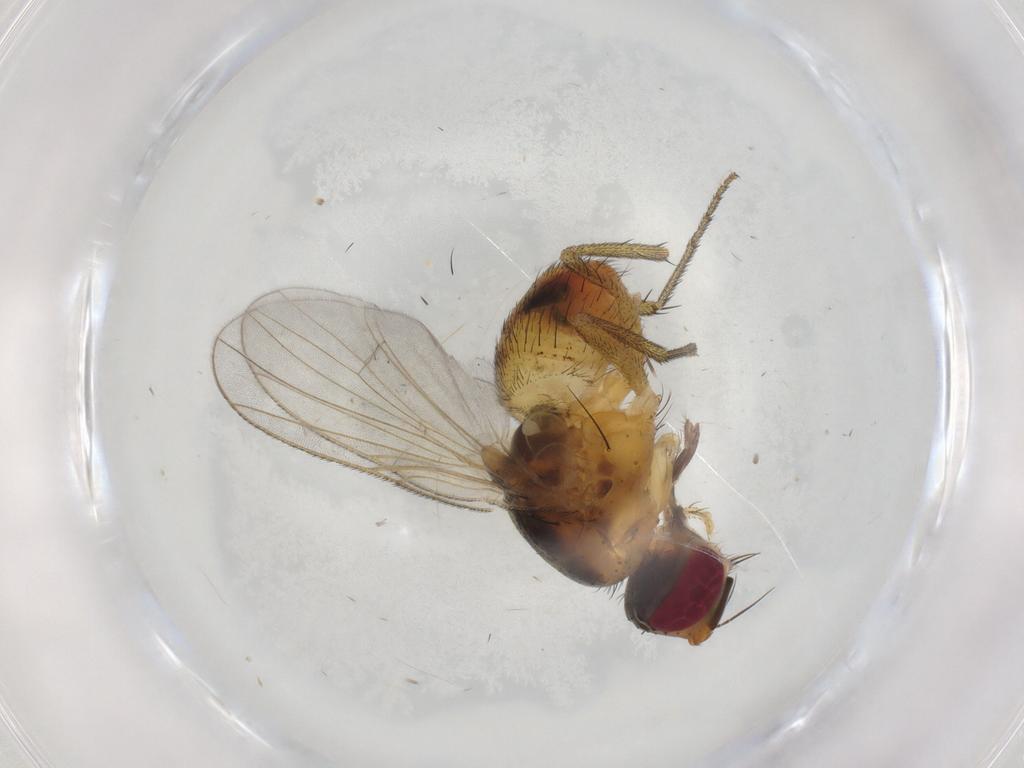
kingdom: Animalia
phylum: Arthropoda
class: Insecta
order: Diptera
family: Muscidae
